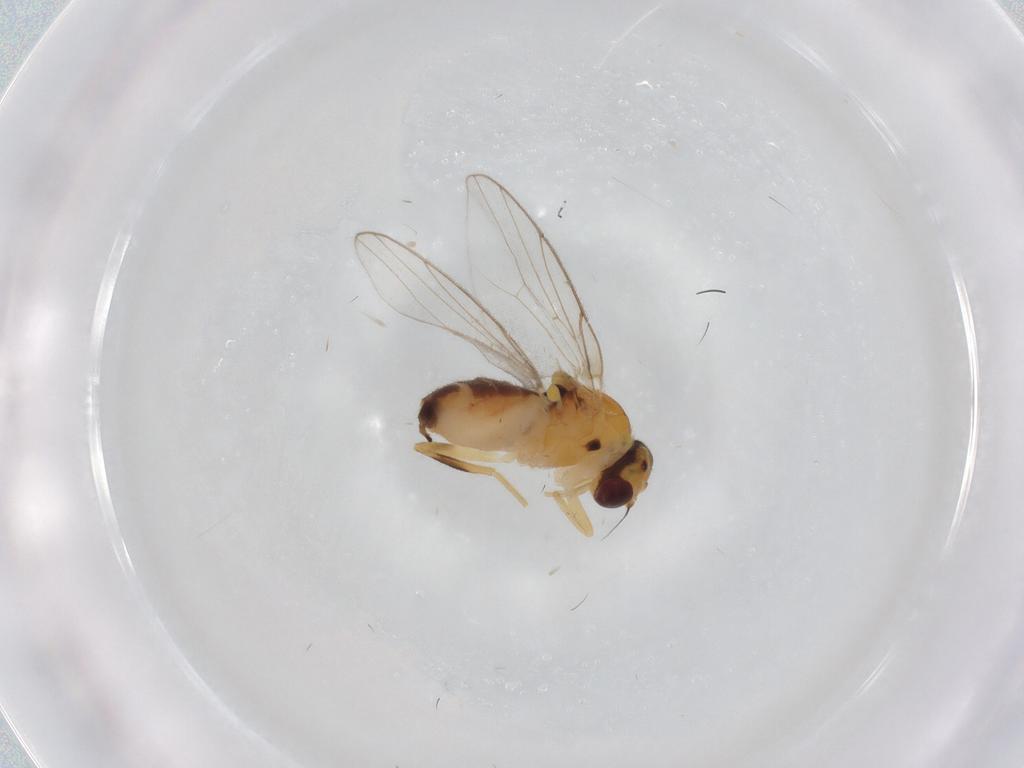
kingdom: Animalia
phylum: Arthropoda
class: Insecta
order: Diptera
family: Chloropidae
